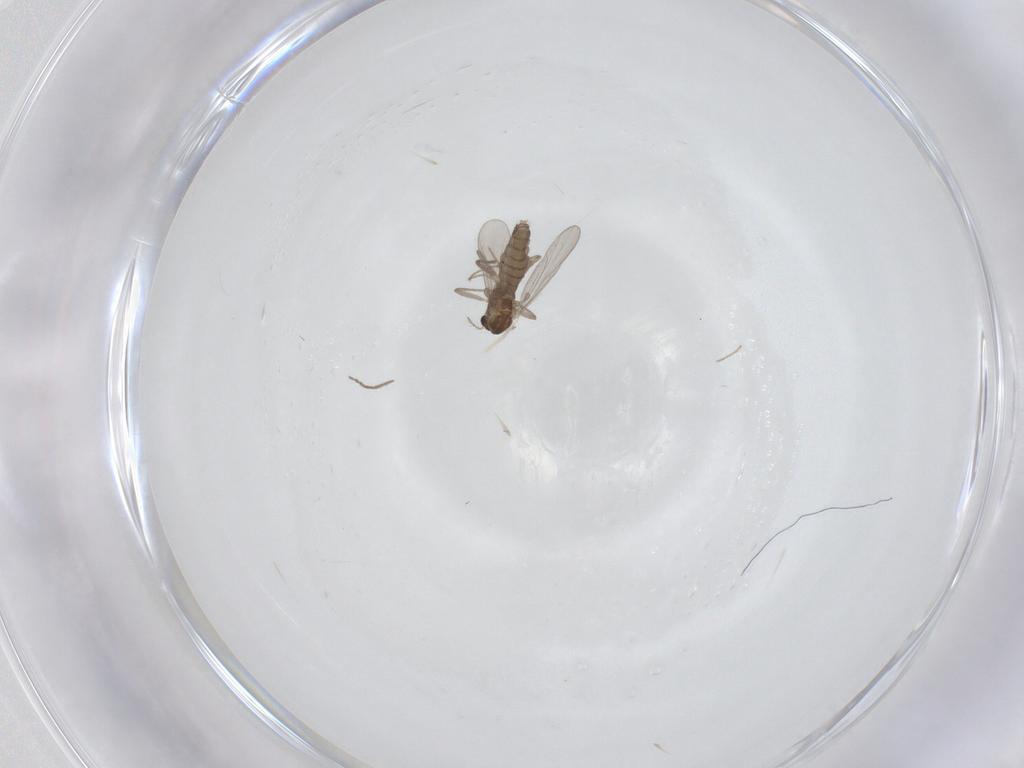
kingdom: Animalia
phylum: Arthropoda
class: Insecta
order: Diptera
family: Chironomidae
